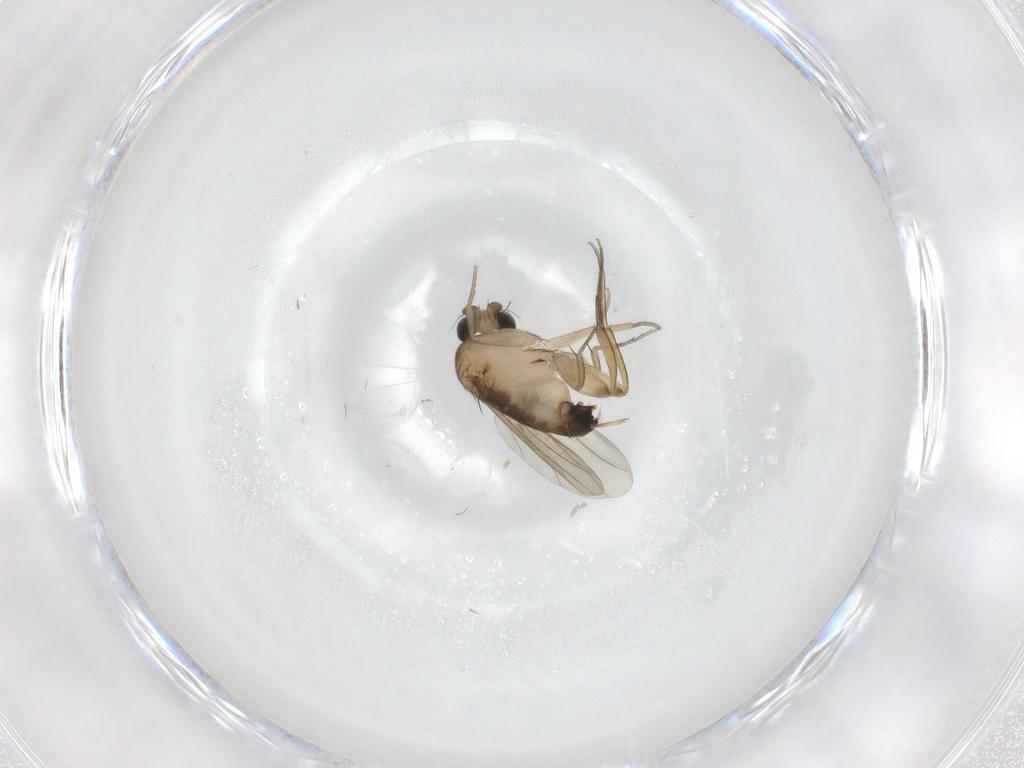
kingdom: Animalia
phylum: Arthropoda
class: Insecta
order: Diptera
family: Phoridae
